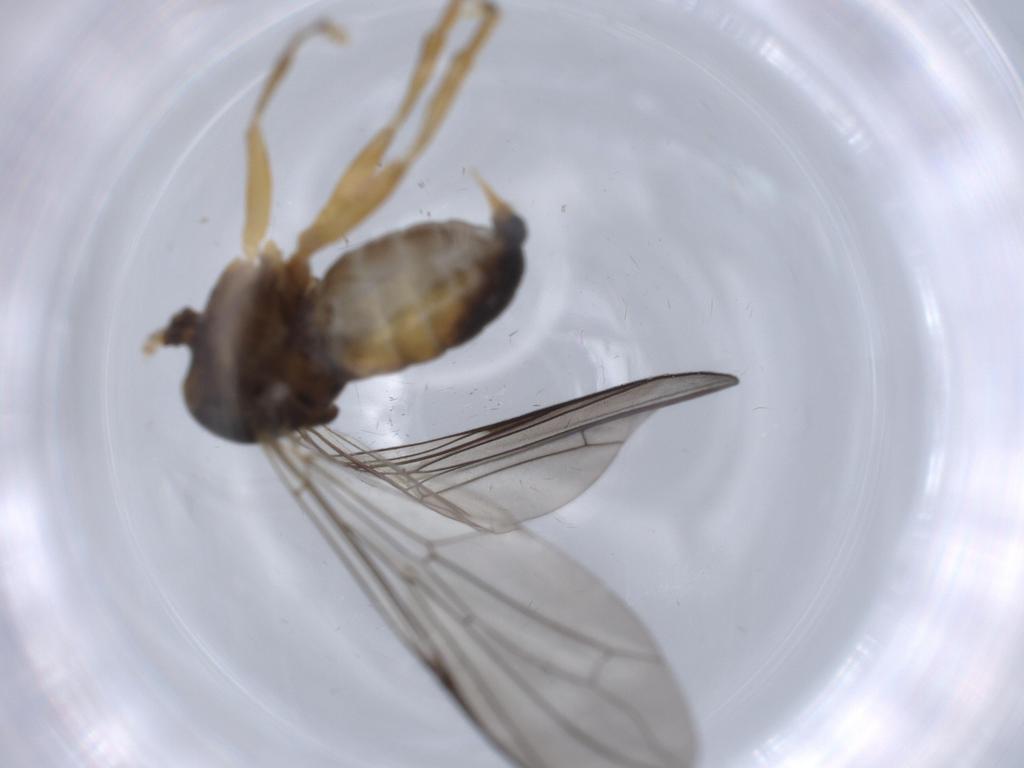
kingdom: Animalia
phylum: Arthropoda
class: Insecta
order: Diptera
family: Pipunculidae
